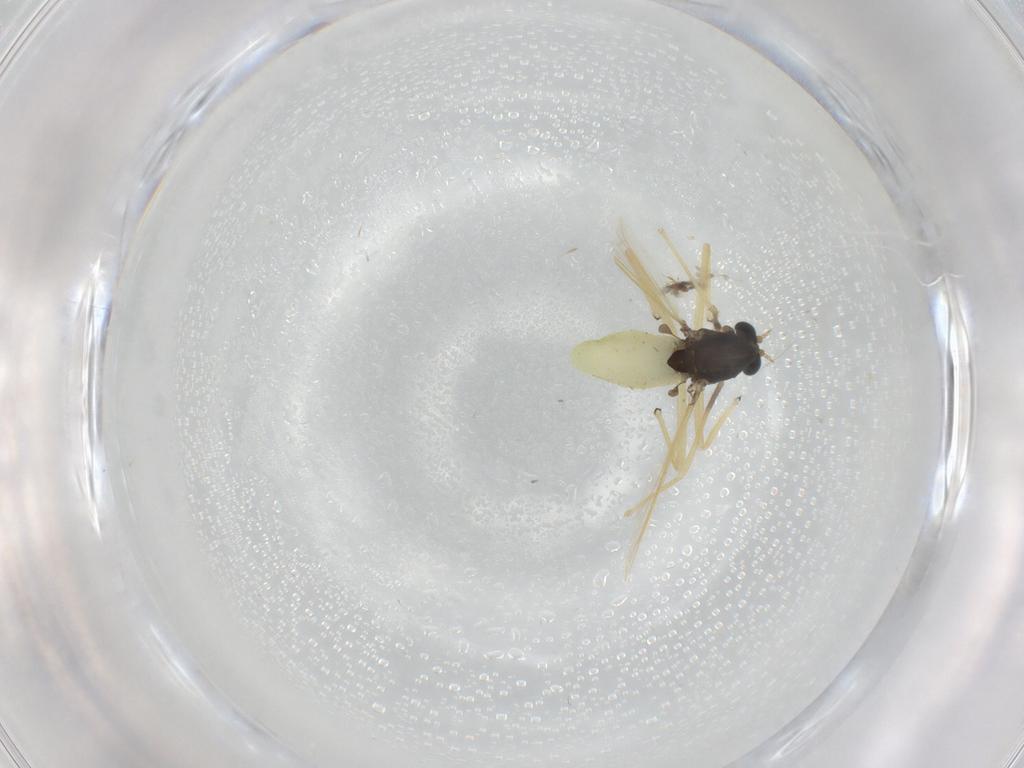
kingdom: Animalia
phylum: Arthropoda
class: Insecta
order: Diptera
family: Chironomidae
